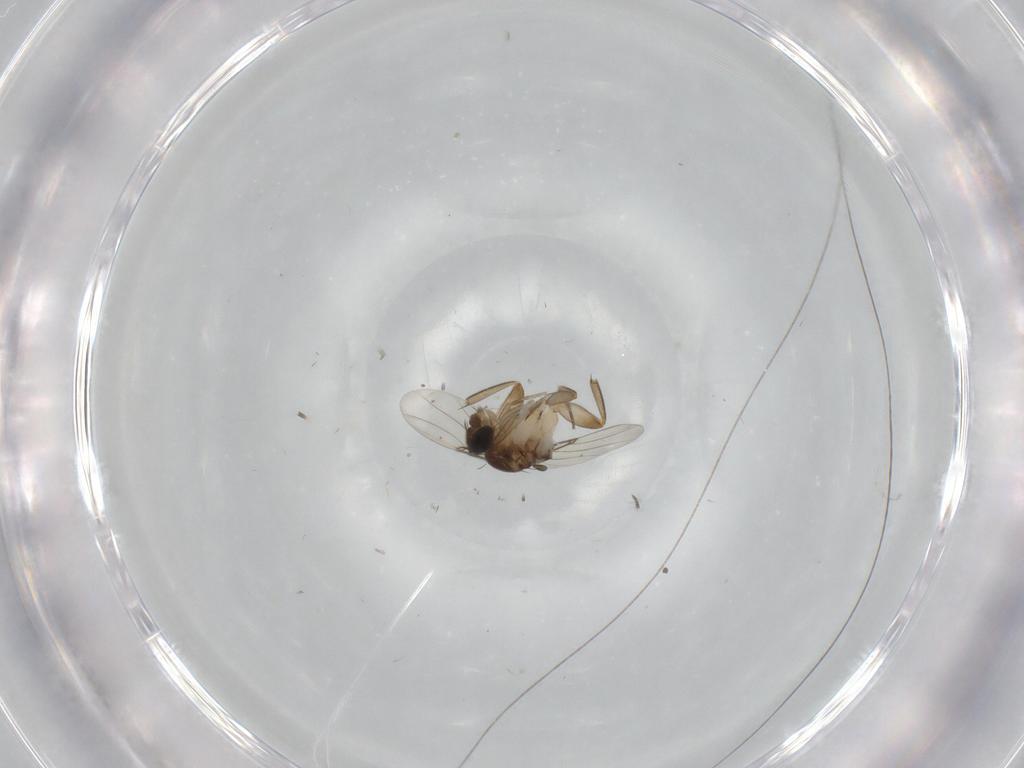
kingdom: Animalia
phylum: Arthropoda
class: Insecta
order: Diptera
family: Phoridae
